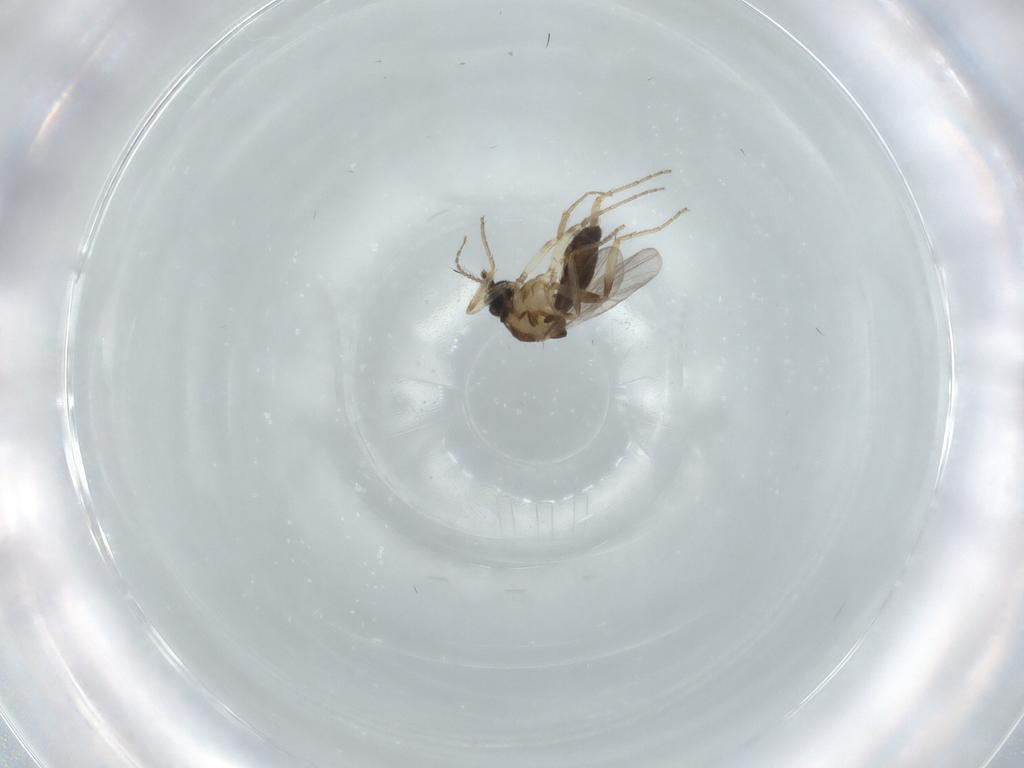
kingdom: Animalia
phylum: Arthropoda
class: Insecta
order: Diptera
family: Ceratopogonidae
